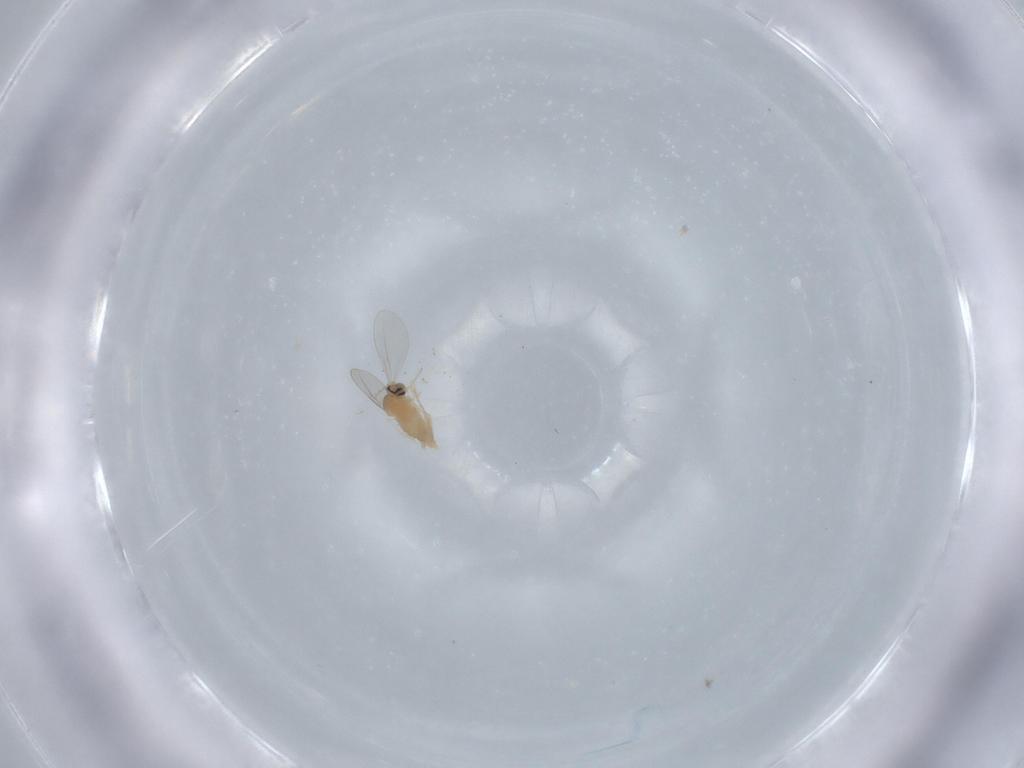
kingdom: Animalia
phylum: Arthropoda
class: Insecta
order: Diptera
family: Cecidomyiidae
